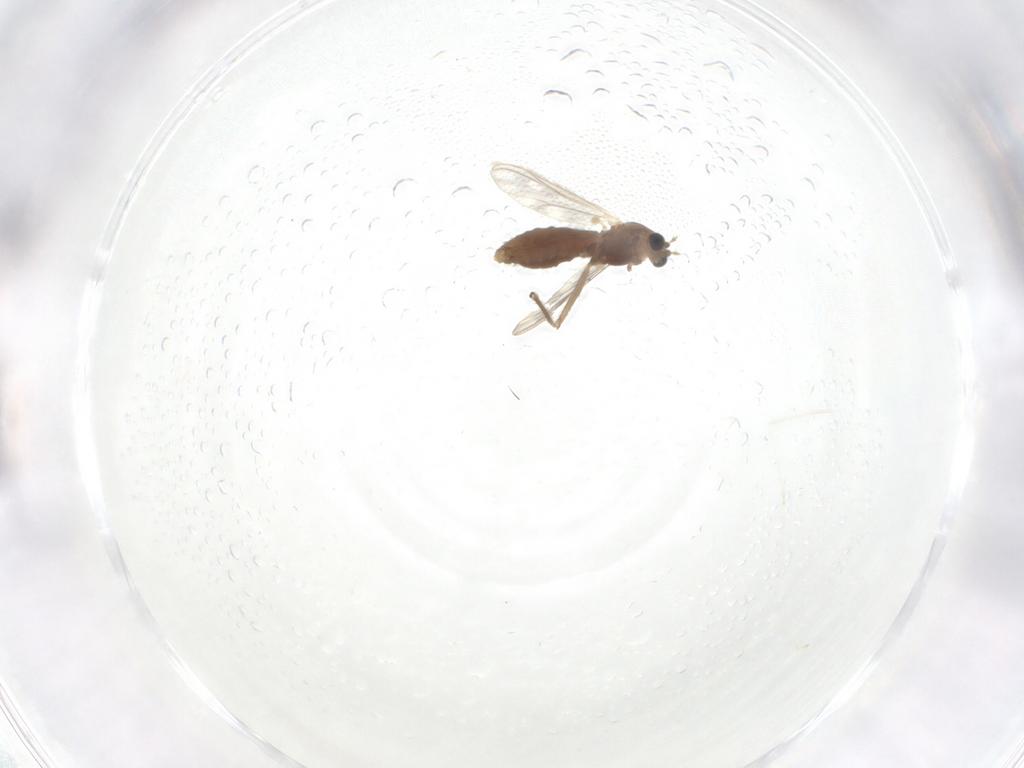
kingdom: Animalia
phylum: Arthropoda
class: Insecta
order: Diptera
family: Chironomidae
